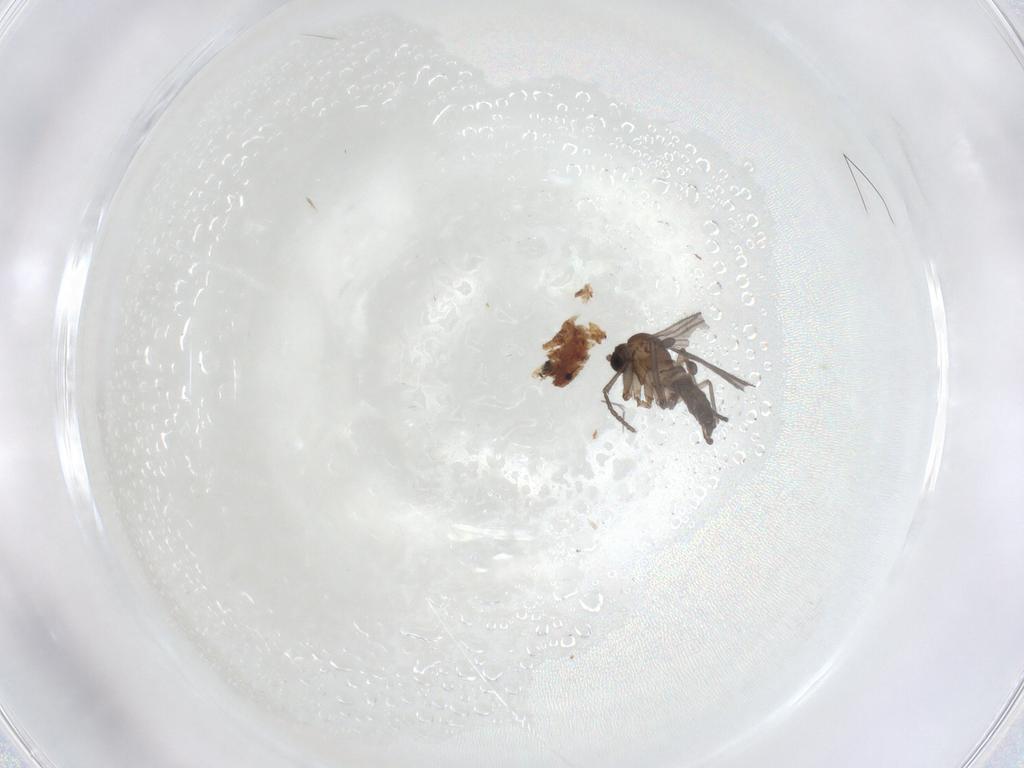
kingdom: Animalia
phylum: Arthropoda
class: Insecta
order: Diptera
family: Sciaridae
